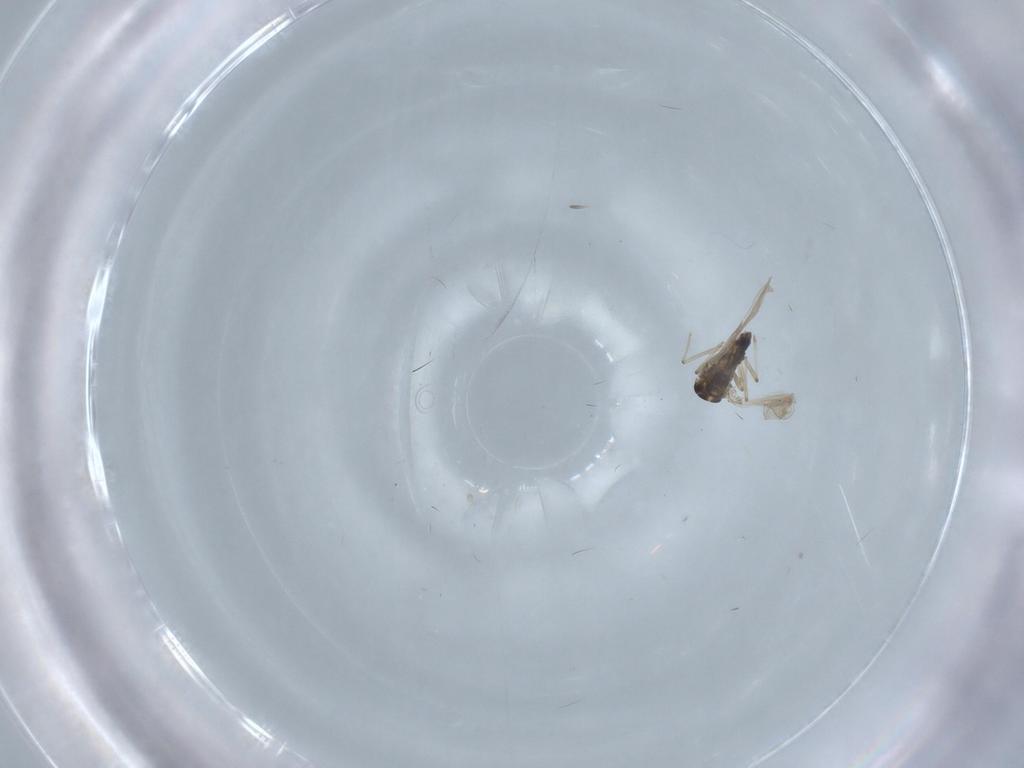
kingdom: Animalia
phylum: Arthropoda
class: Insecta
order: Diptera
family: Chironomidae
